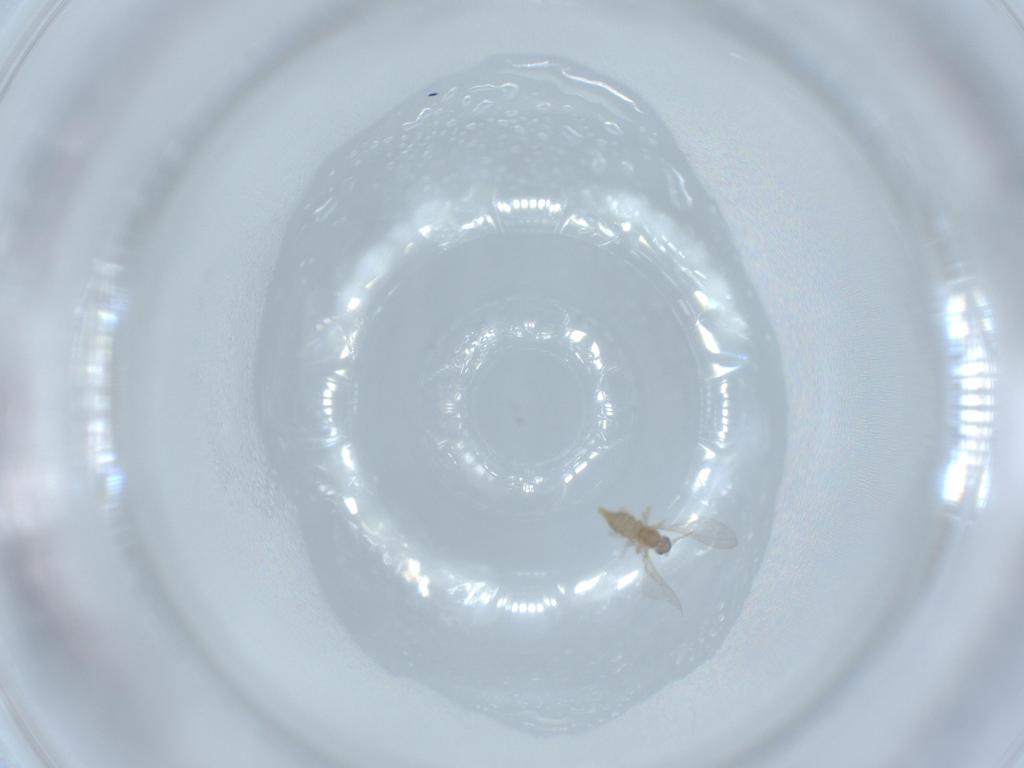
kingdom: Animalia
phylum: Arthropoda
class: Insecta
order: Diptera
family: Cecidomyiidae
